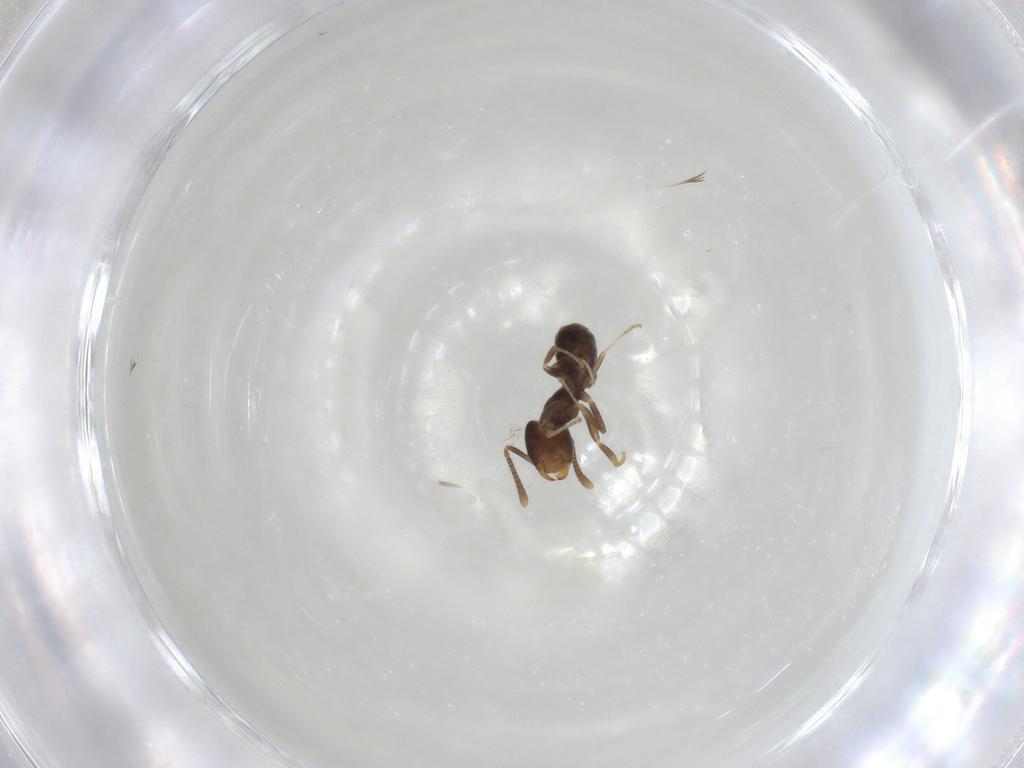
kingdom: Animalia
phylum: Arthropoda
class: Insecta
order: Hymenoptera
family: Formicidae
